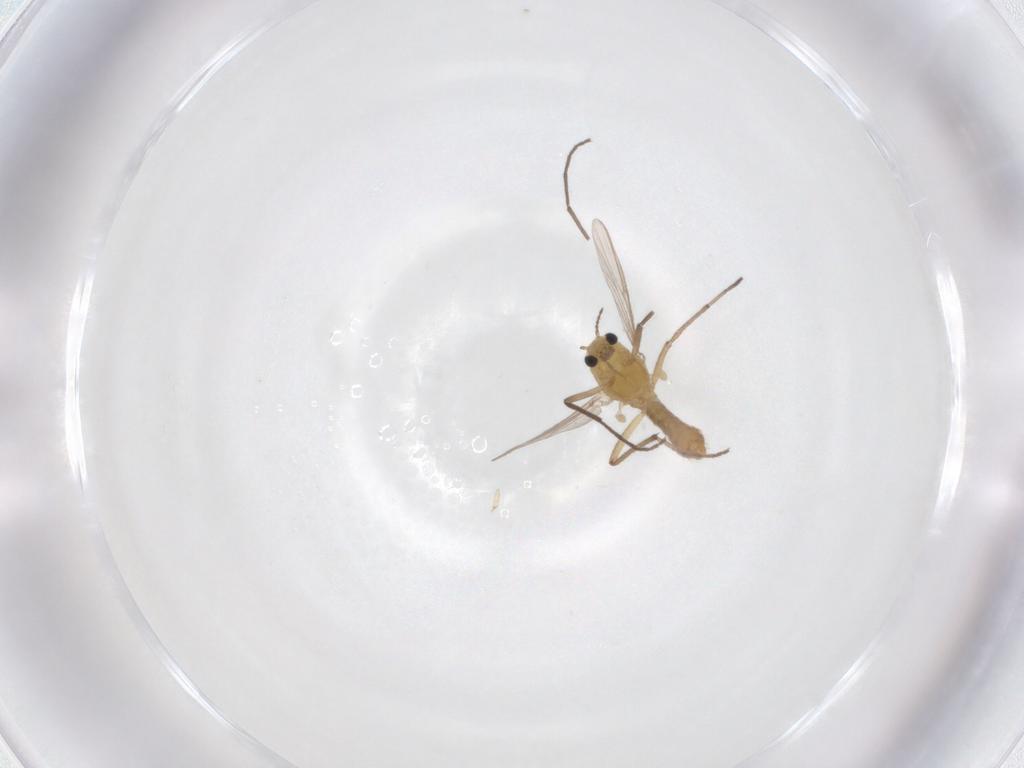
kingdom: Animalia
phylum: Arthropoda
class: Insecta
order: Diptera
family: Chironomidae
